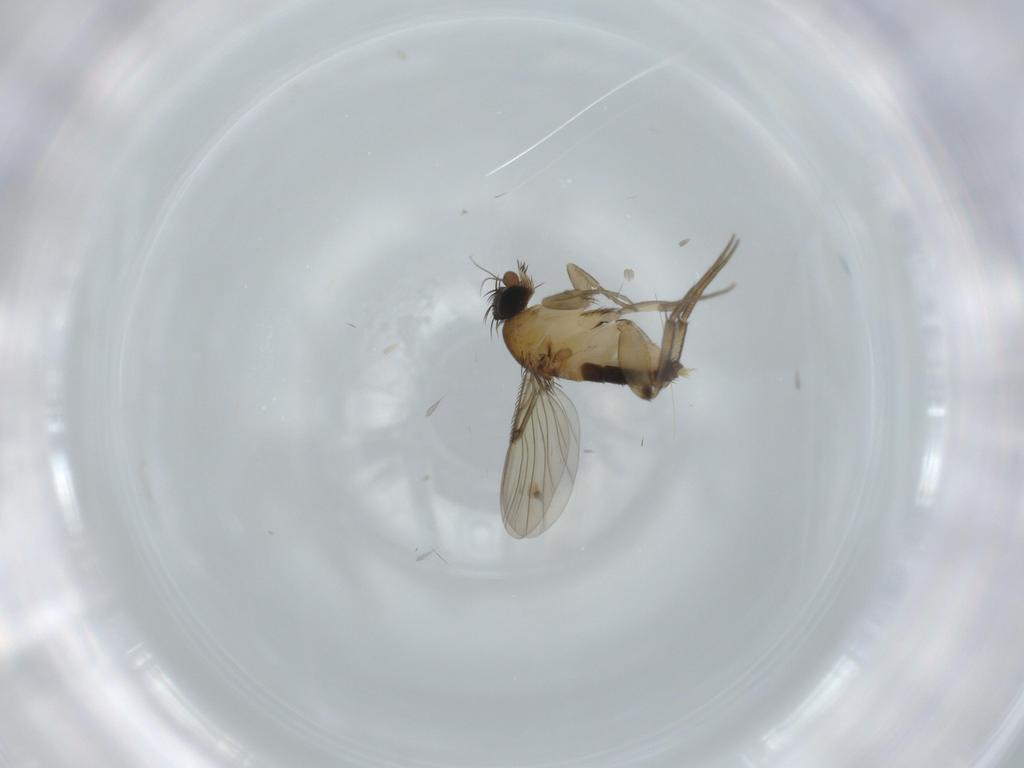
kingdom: Animalia
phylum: Arthropoda
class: Insecta
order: Diptera
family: Phoridae
